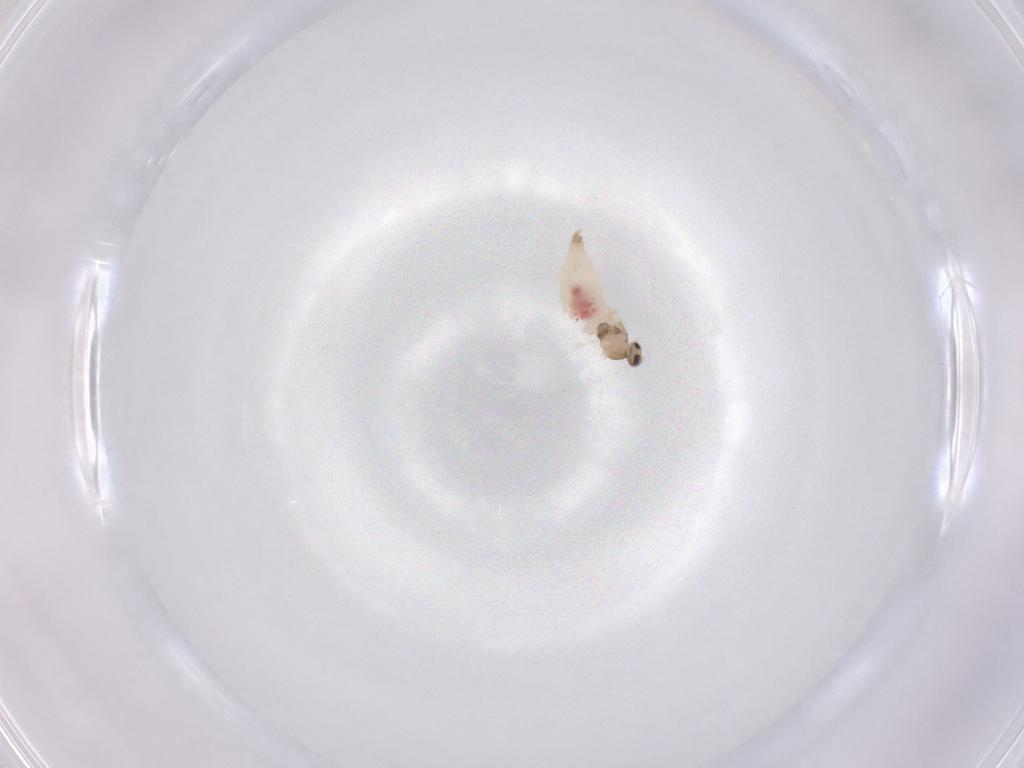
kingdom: Animalia
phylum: Arthropoda
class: Insecta
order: Diptera
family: Cecidomyiidae
